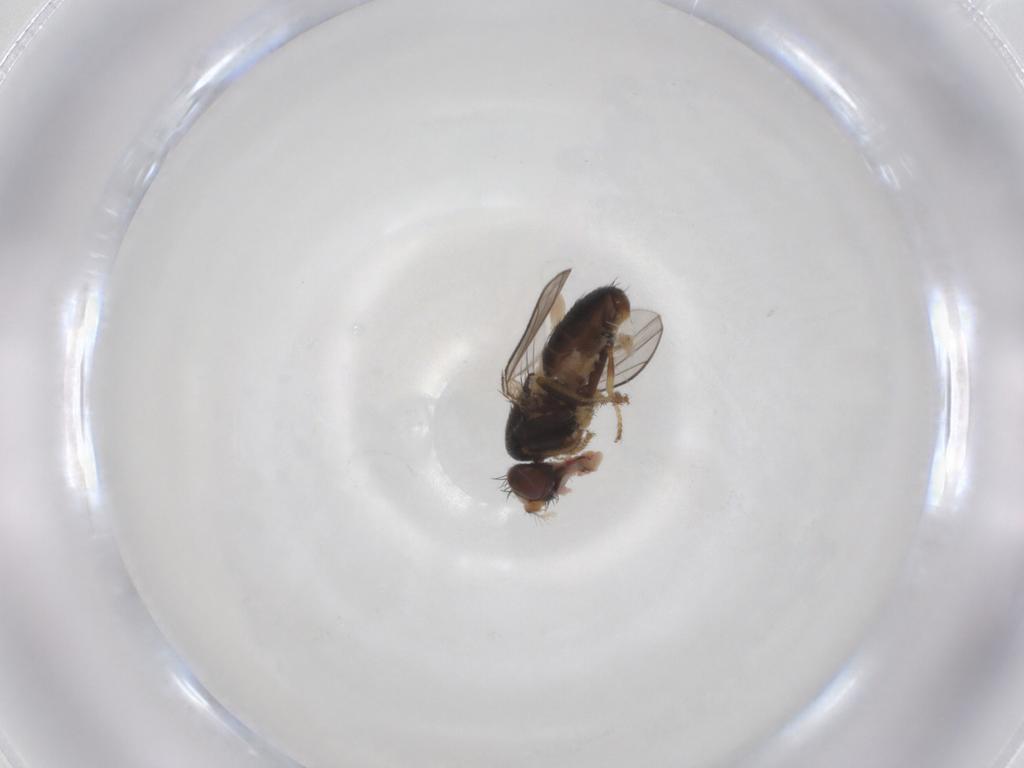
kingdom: Animalia
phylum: Arthropoda
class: Insecta
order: Diptera
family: Ephydridae
